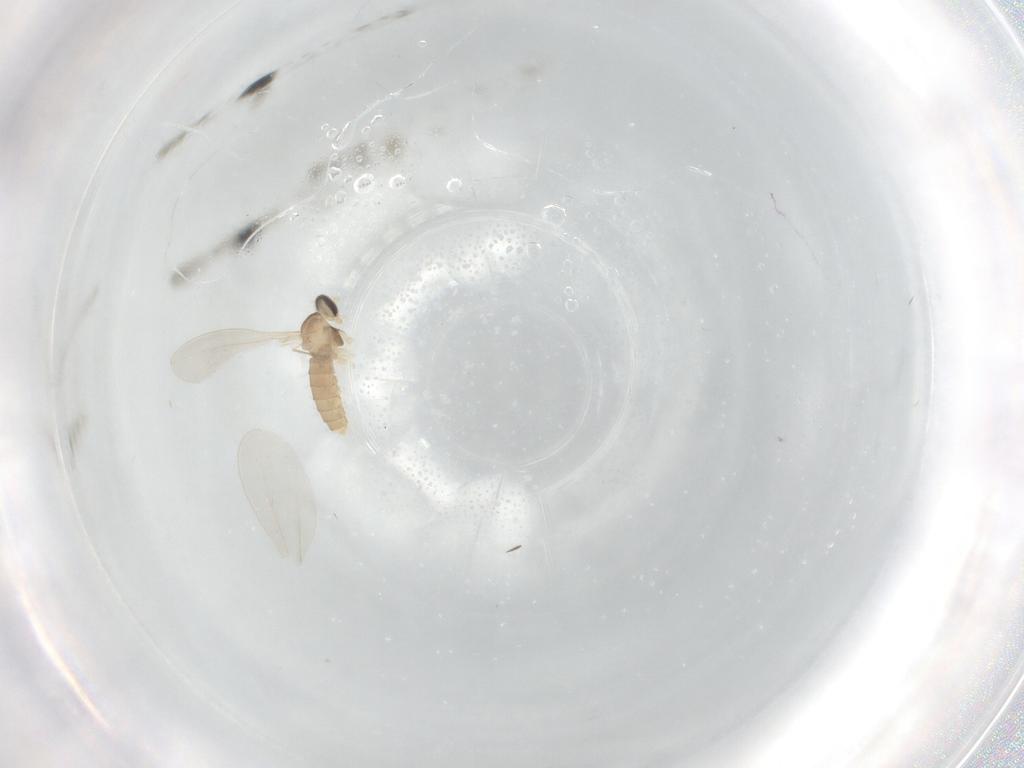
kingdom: Animalia
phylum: Arthropoda
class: Insecta
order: Diptera
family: Cecidomyiidae
